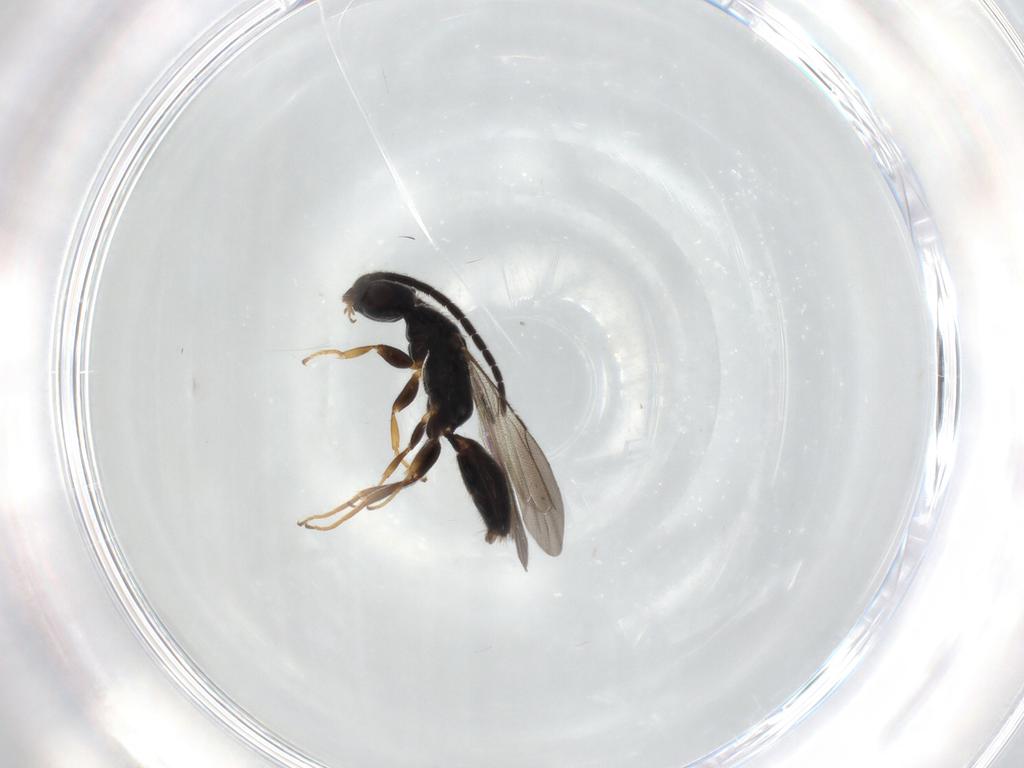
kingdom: Animalia
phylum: Arthropoda
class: Insecta
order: Hymenoptera
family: Bethylidae
